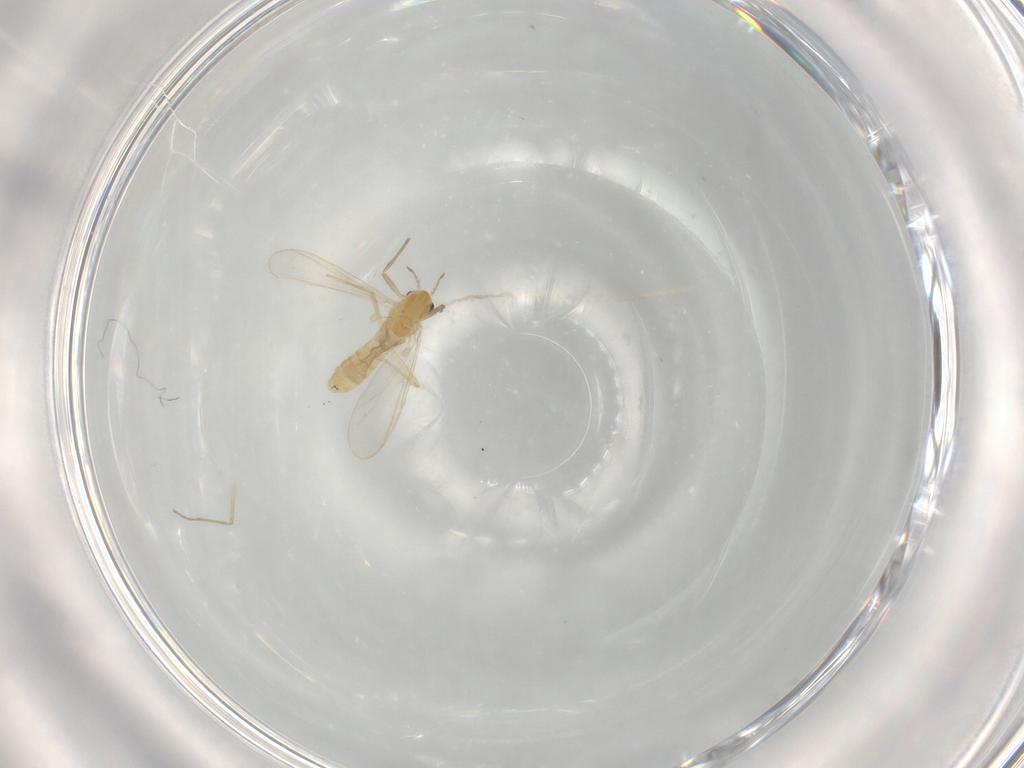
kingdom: Animalia
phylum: Arthropoda
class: Insecta
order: Diptera
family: Chironomidae
